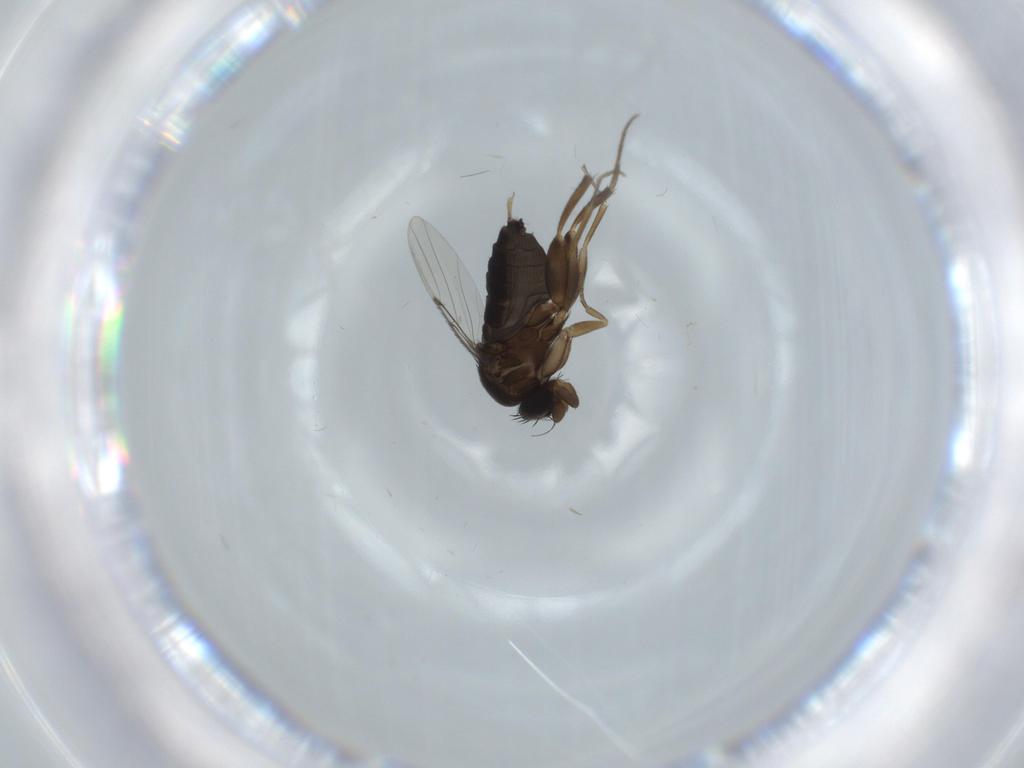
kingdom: Animalia
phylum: Arthropoda
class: Insecta
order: Diptera
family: Phoridae
